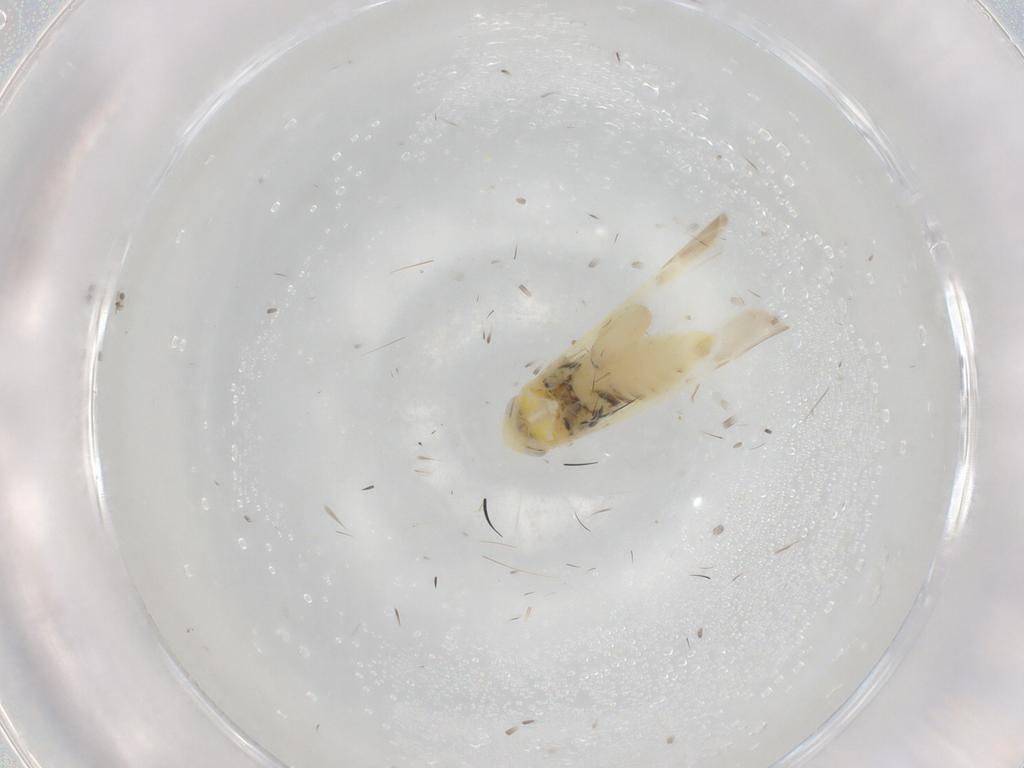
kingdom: Animalia
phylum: Arthropoda
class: Insecta
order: Hemiptera
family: Cicadellidae
